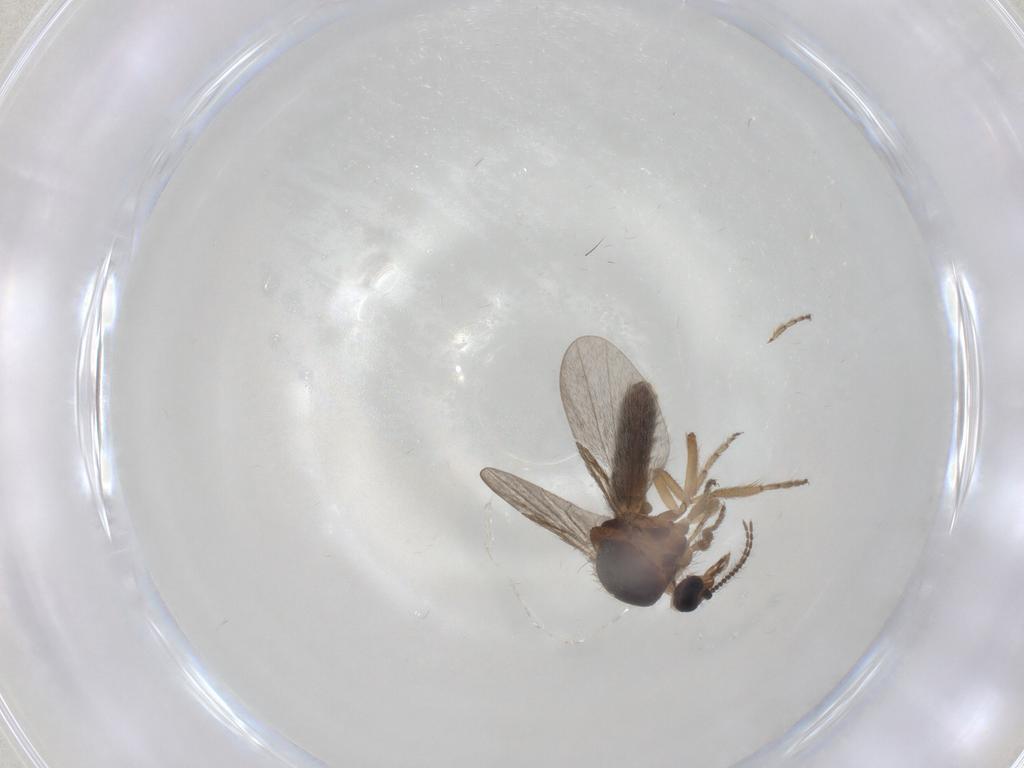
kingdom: Animalia
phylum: Arthropoda
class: Insecta
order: Diptera
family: Ceratopogonidae
